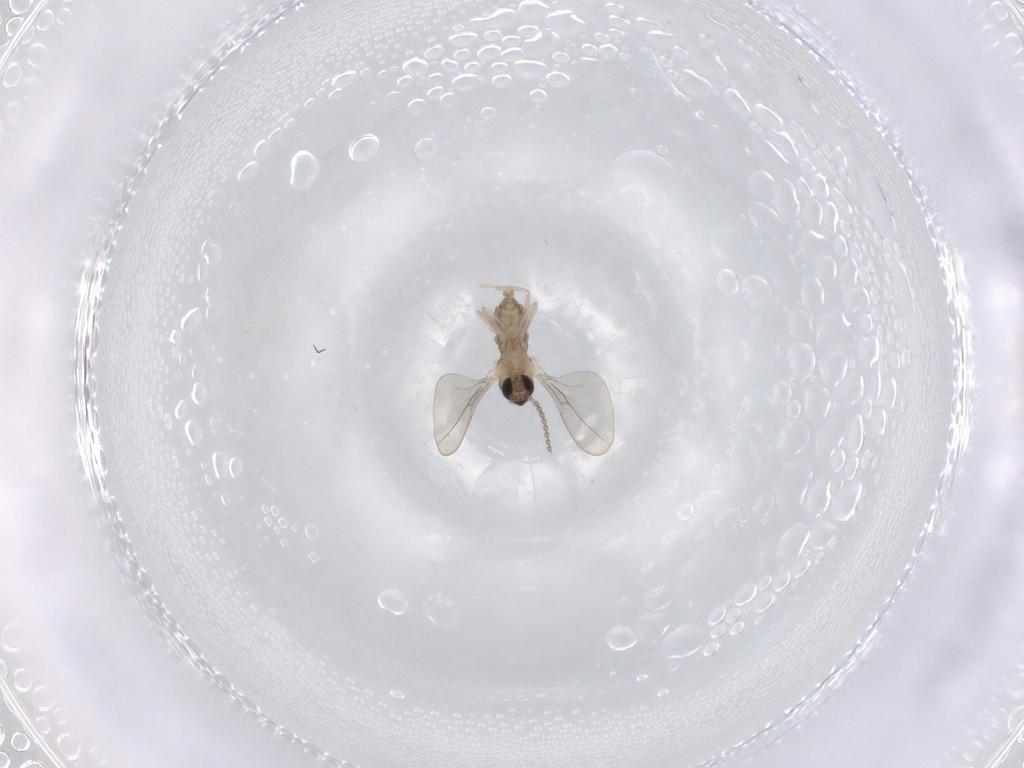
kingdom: Animalia
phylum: Arthropoda
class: Insecta
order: Diptera
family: Cecidomyiidae
